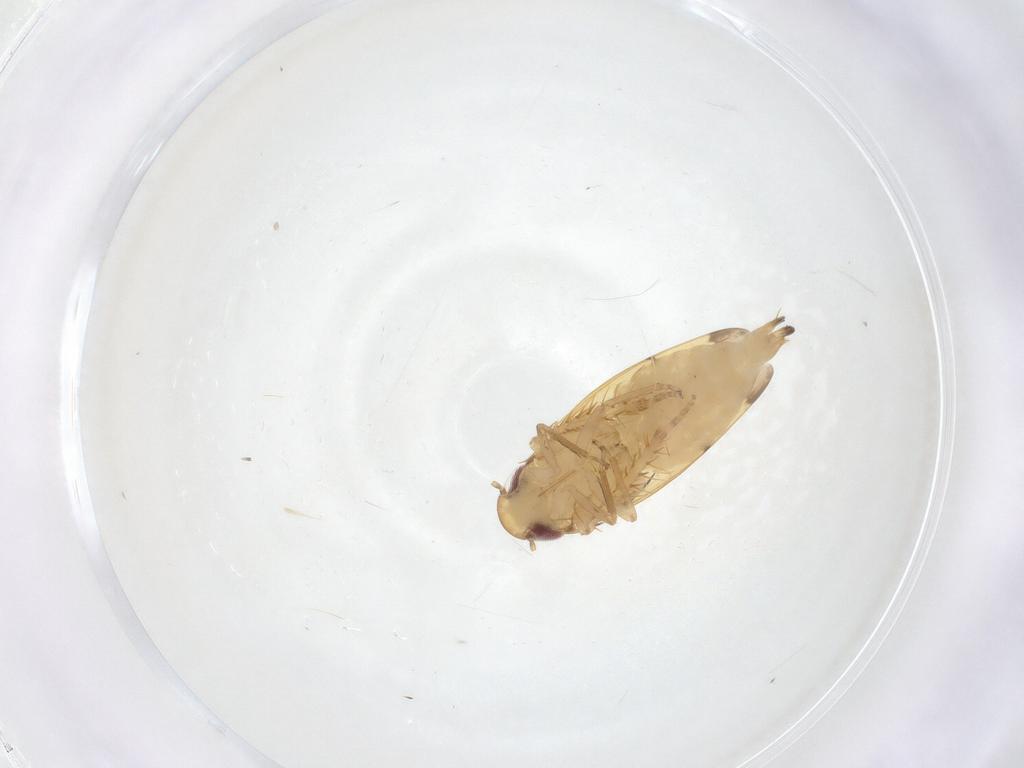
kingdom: Animalia
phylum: Arthropoda
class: Insecta
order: Hemiptera
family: Cicadellidae
